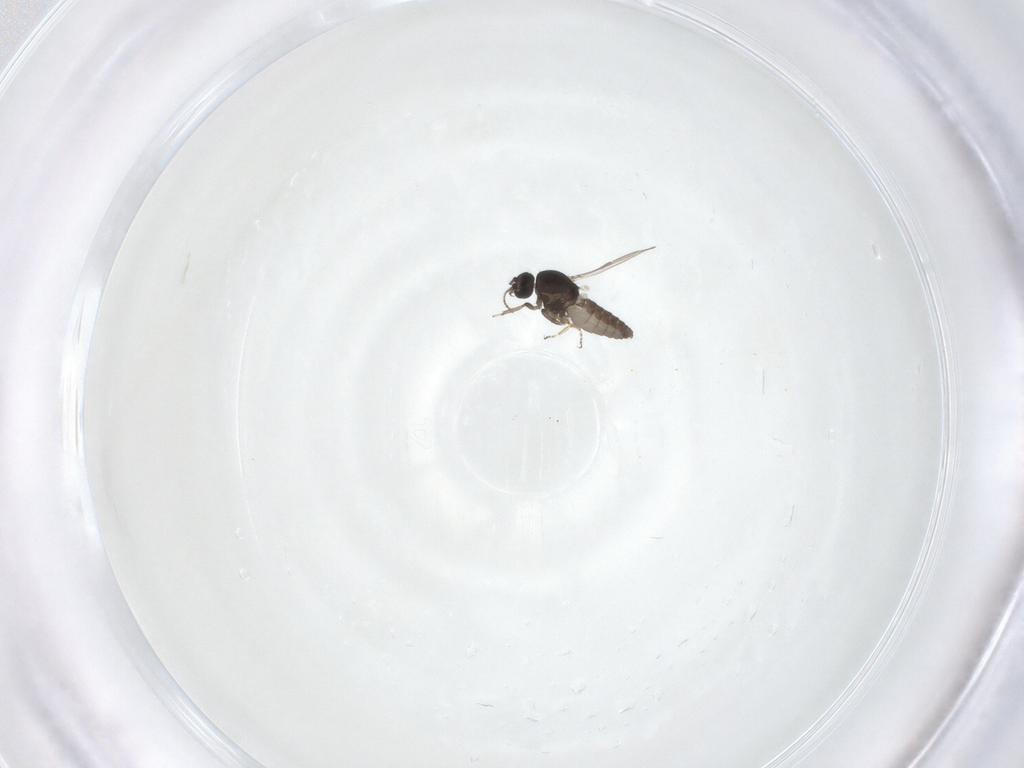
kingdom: Animalia
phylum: Arthropoda
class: Insecta
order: Diptera
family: Ceratopogonidae
